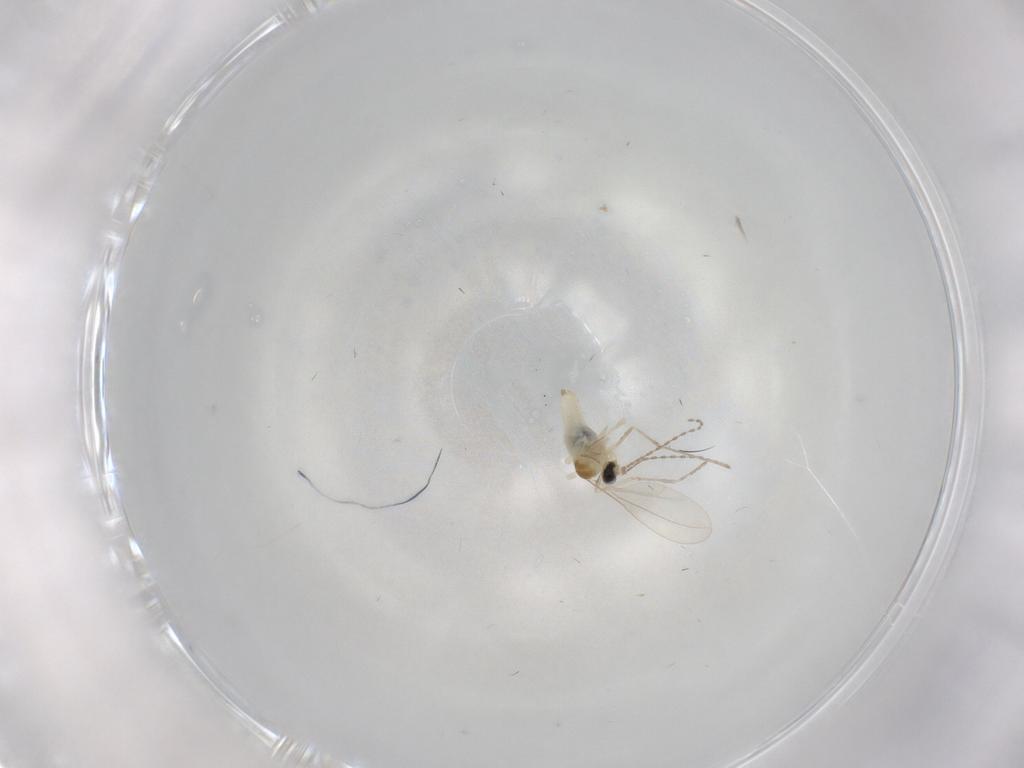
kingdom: Animalia
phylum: Arthropoda
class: Insecta
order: Diptera
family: Cecidomyiidae
